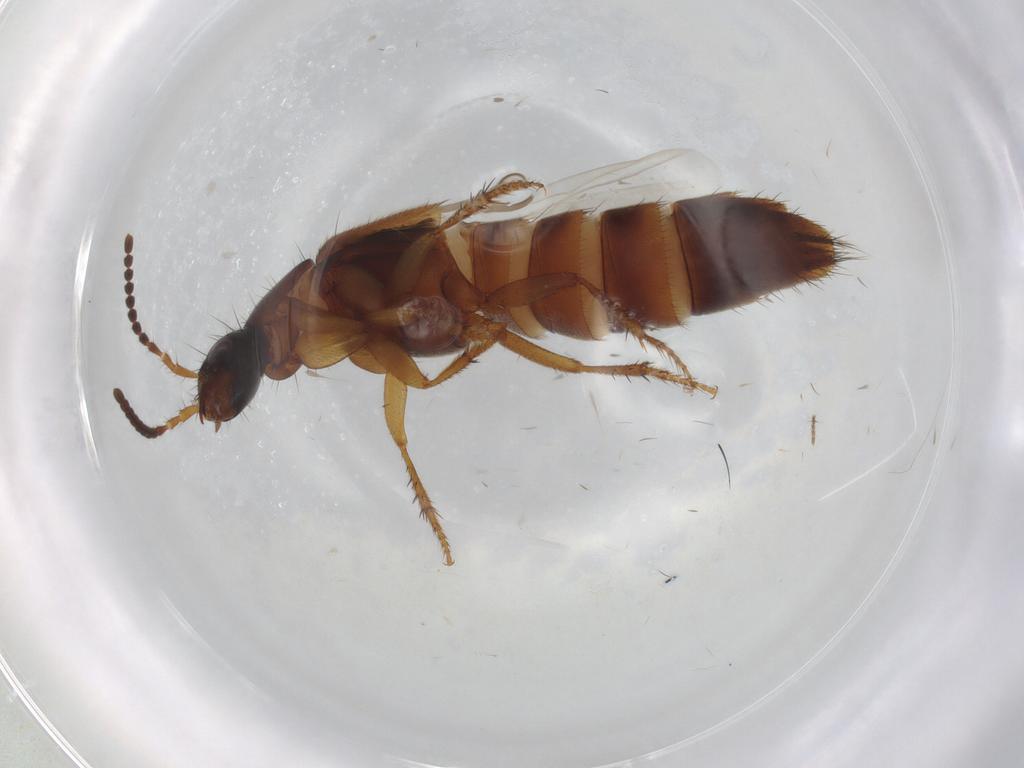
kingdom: Animalia
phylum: Arthropoda
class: Insecta
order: Coleoptera
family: Staphylinidae
